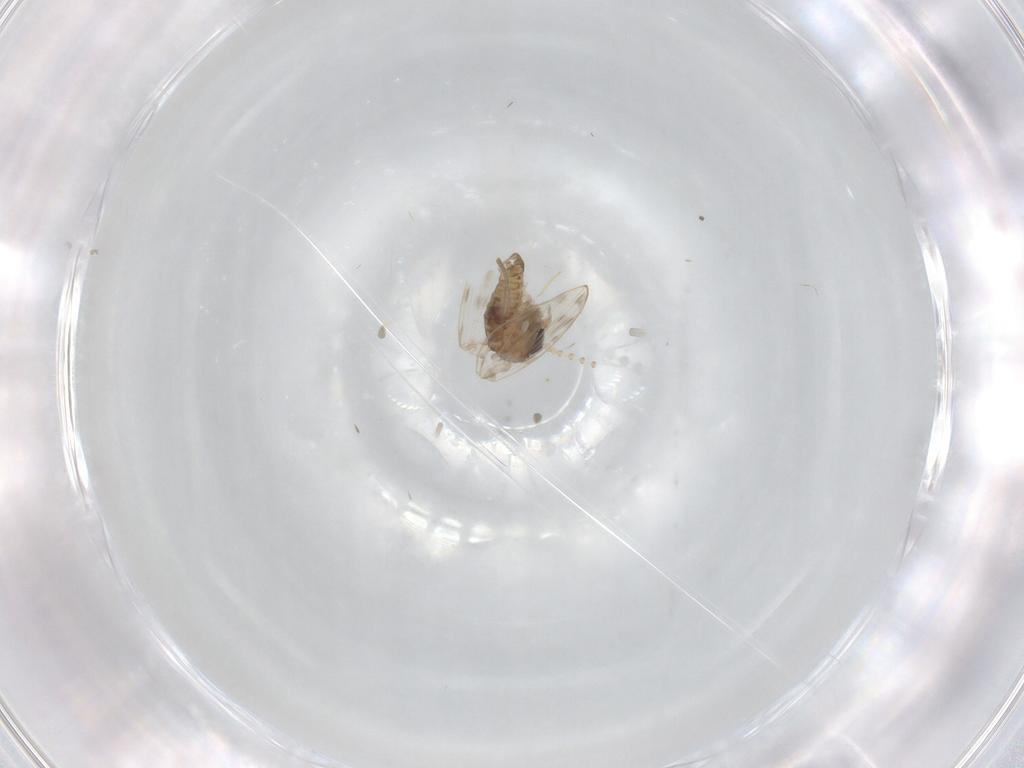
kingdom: Animalia
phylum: Arthropoda
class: Insecta
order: Diptera
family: Psychodidae
